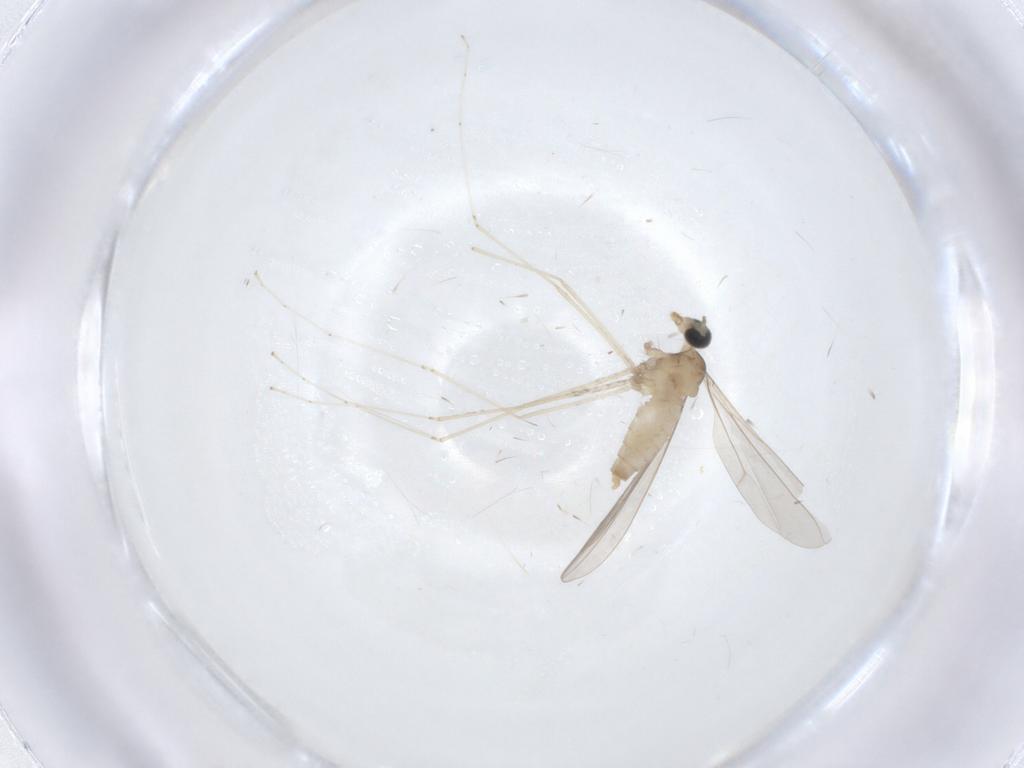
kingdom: Animalia
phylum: Arthropoda
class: Insecta
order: Diptera
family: Cecidomyiidae
